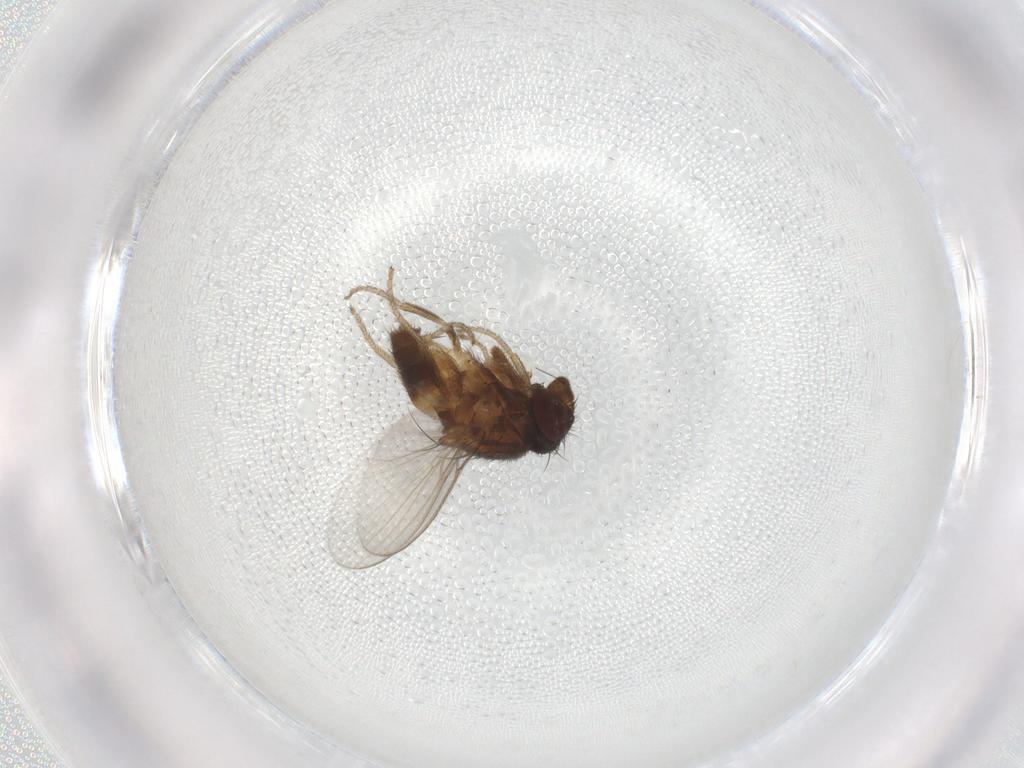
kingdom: Animalia
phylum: Arthropoda
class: Insecta
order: Diptera
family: Milichiidae
